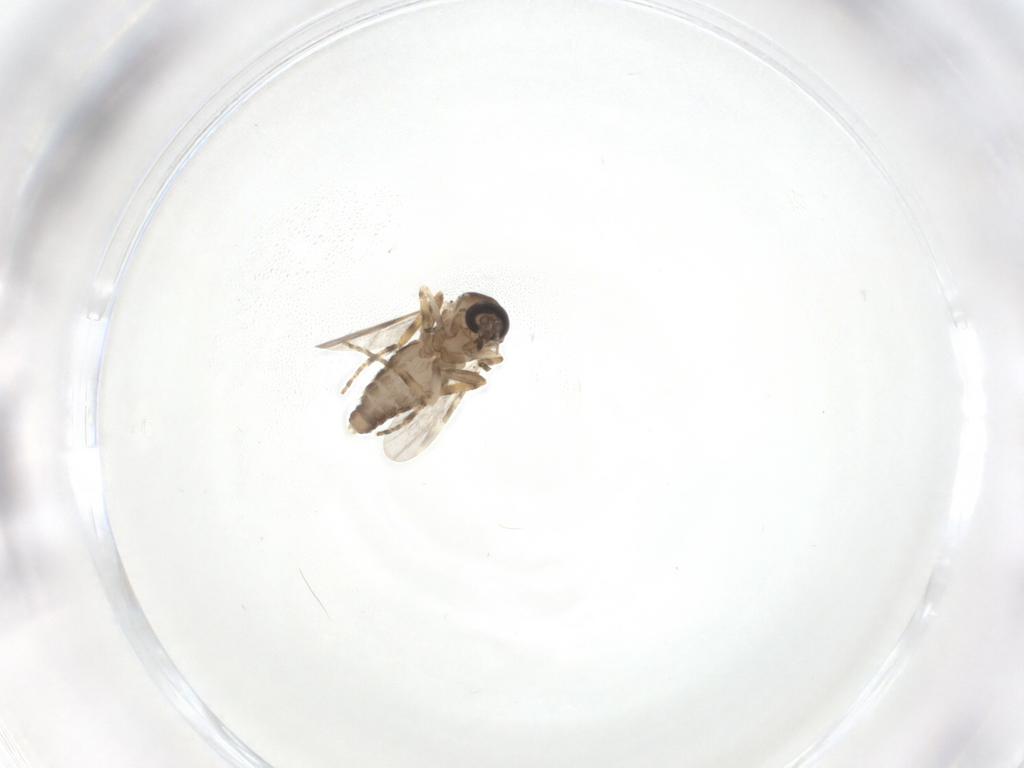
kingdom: Animalia
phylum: Arthropoda
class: Insecta
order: Diptera
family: Ceratopogonidae
